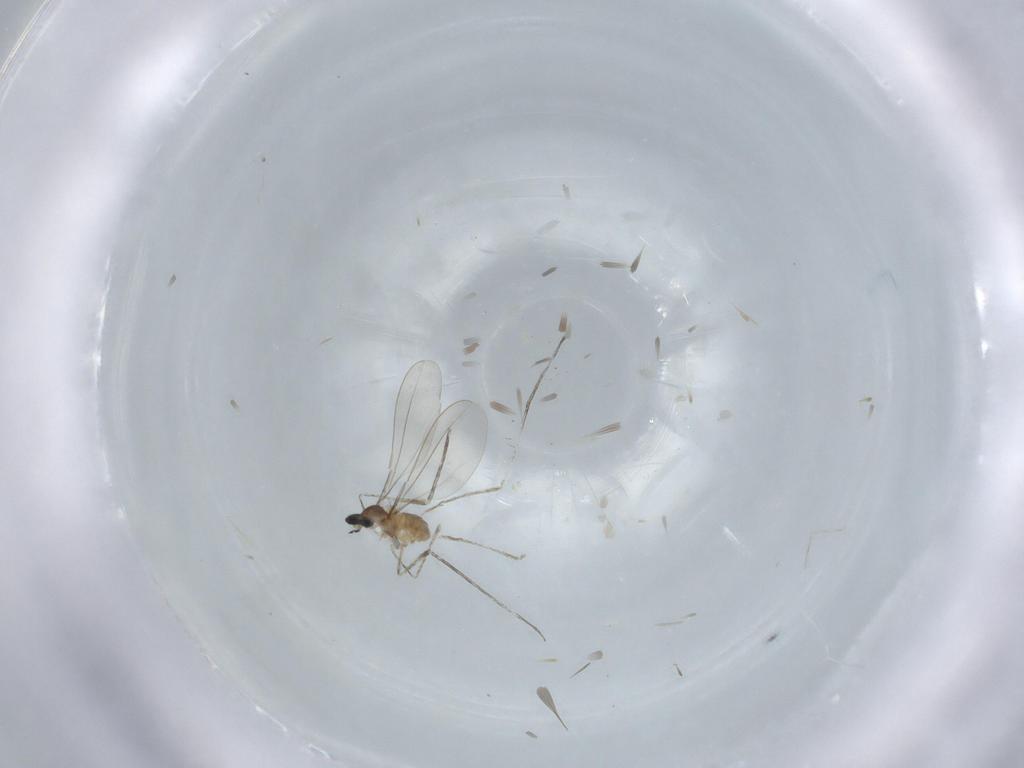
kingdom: Animalia
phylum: Arthropoda
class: Insecta
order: Diptera
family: Cecidomyiidae
